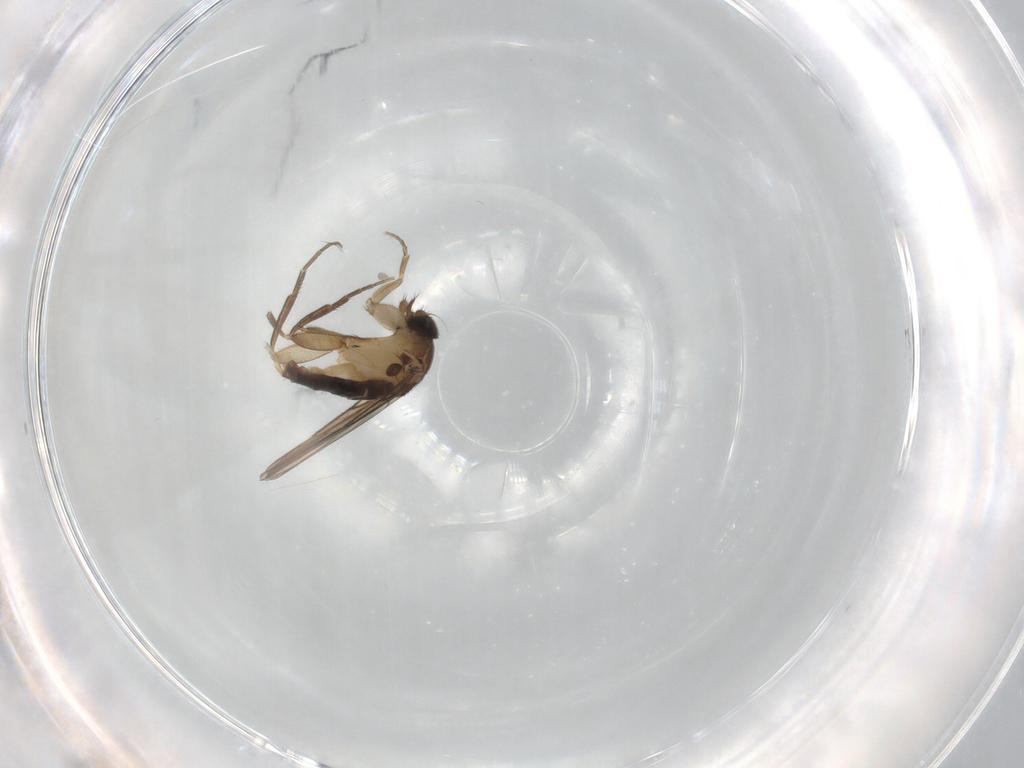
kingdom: Animalia
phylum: Arthropoda
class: Insecta
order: Diptera
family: Phoridae
